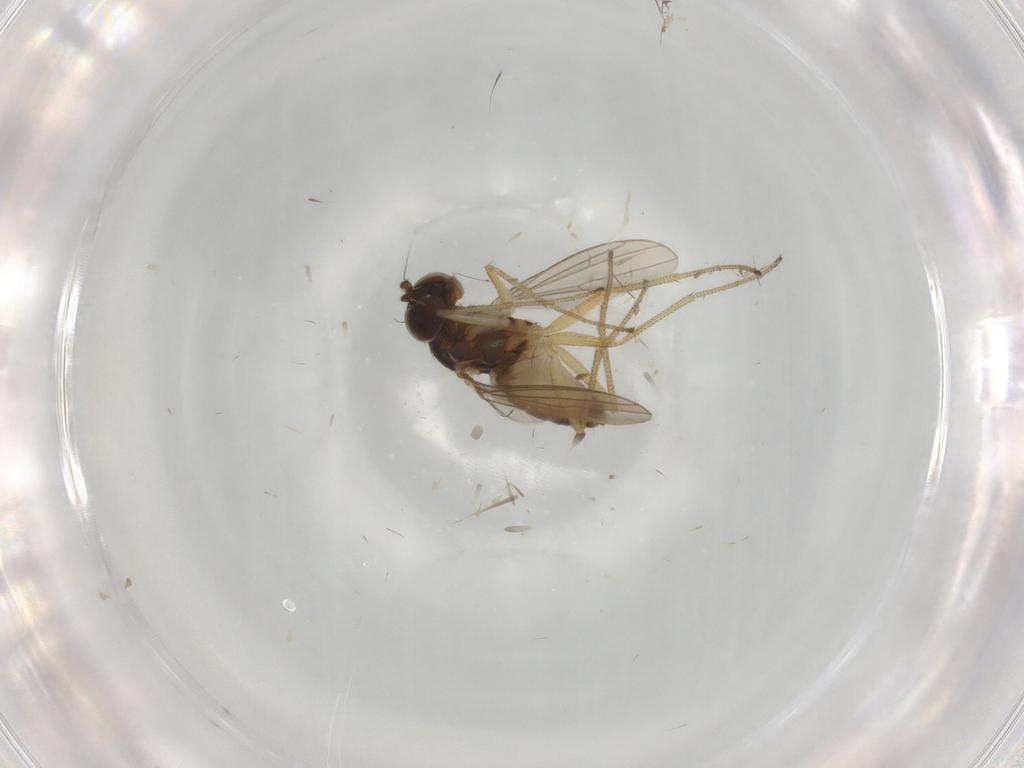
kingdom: Animalia
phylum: Arthropoda
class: Insecta
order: Diptera
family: Dolichopodidae
